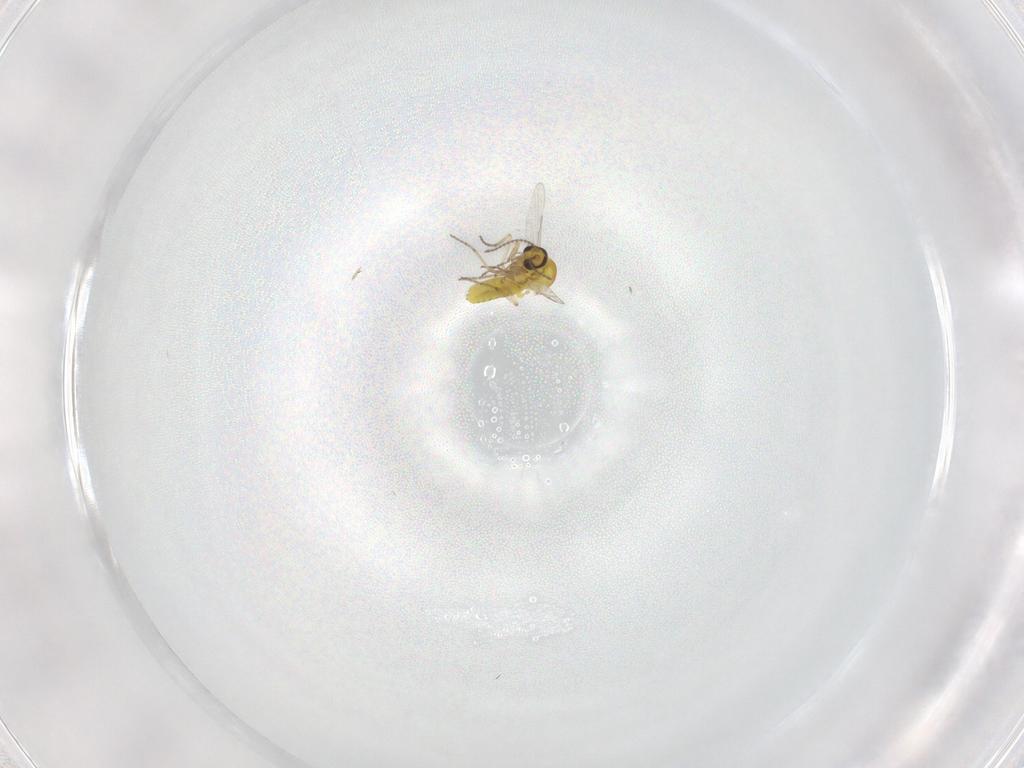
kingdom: Animalia
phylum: Arthropoda
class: Insecta
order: Diptera
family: Ceratopogonidae
